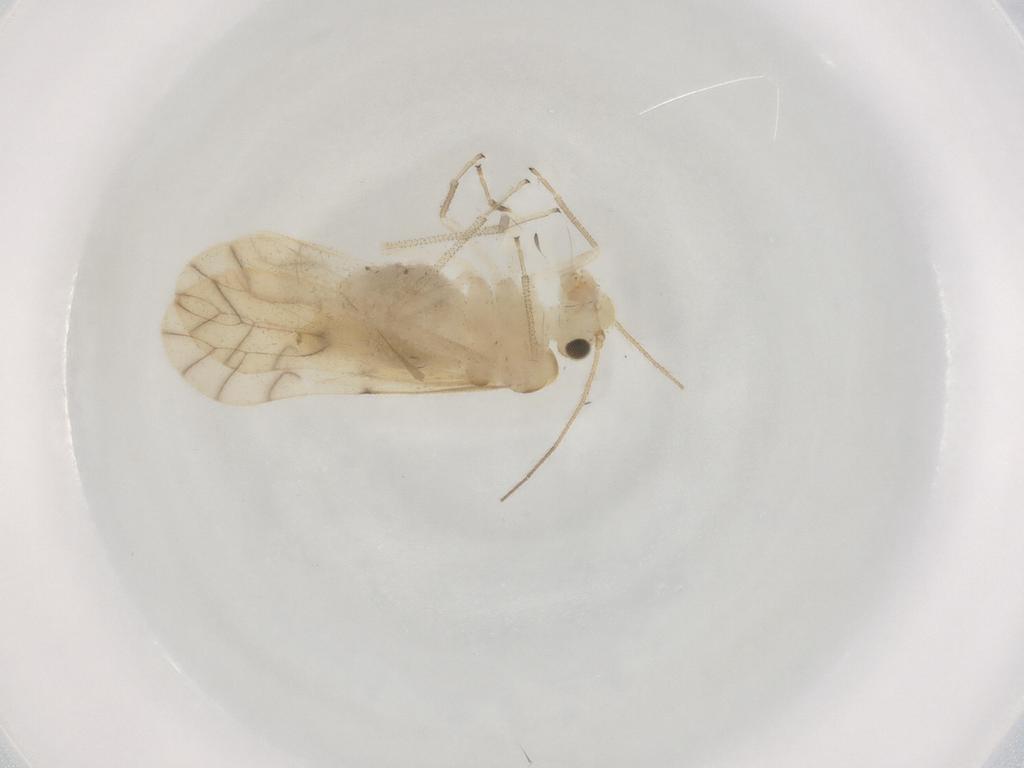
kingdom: Animalia
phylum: Arthropoda
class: Insecta
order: Psocodea
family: Caeciliusidae
